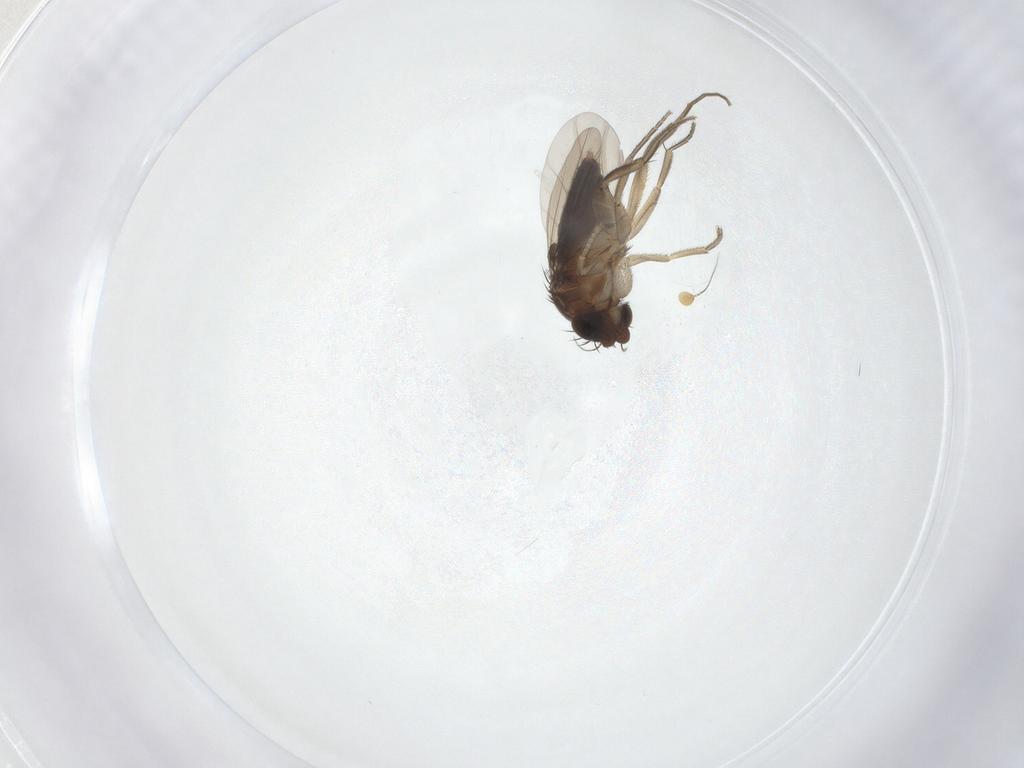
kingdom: Animalia
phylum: Arthropoda
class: Insecta
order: Diptera
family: Phoridae
